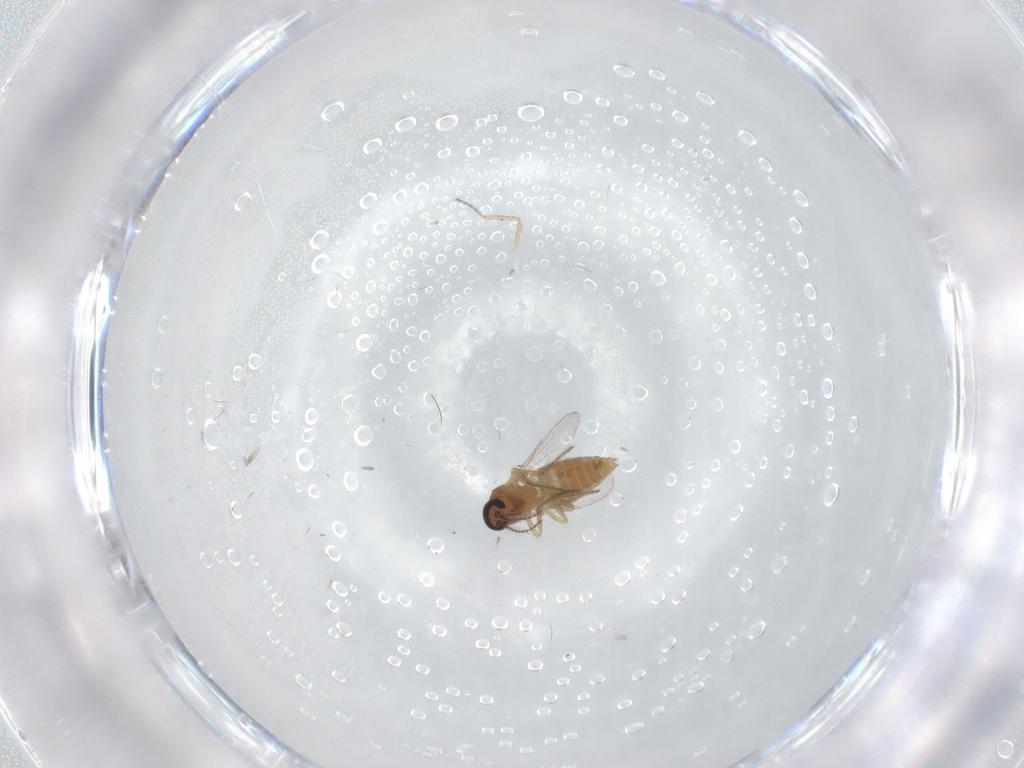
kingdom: Animalia
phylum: Arthropoda
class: Insecta
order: Diptera
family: Ceratopogonidae
